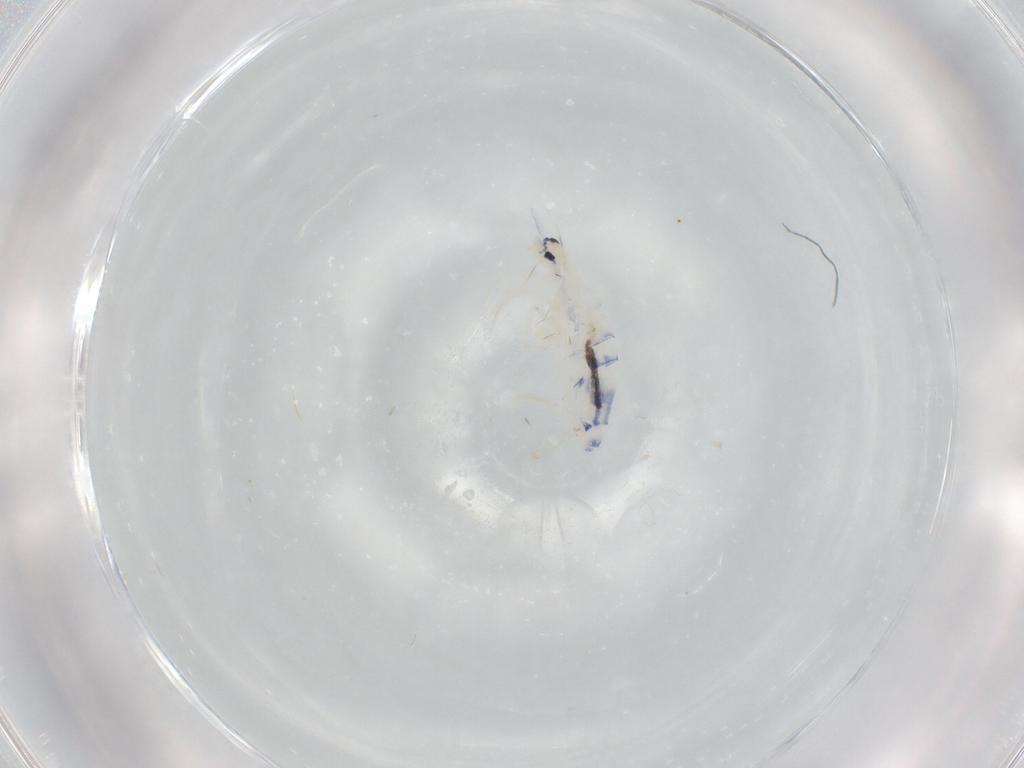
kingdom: Animalia
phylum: Arthropoda
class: Collembola
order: Entomobryomorpha
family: Entomobryidae
